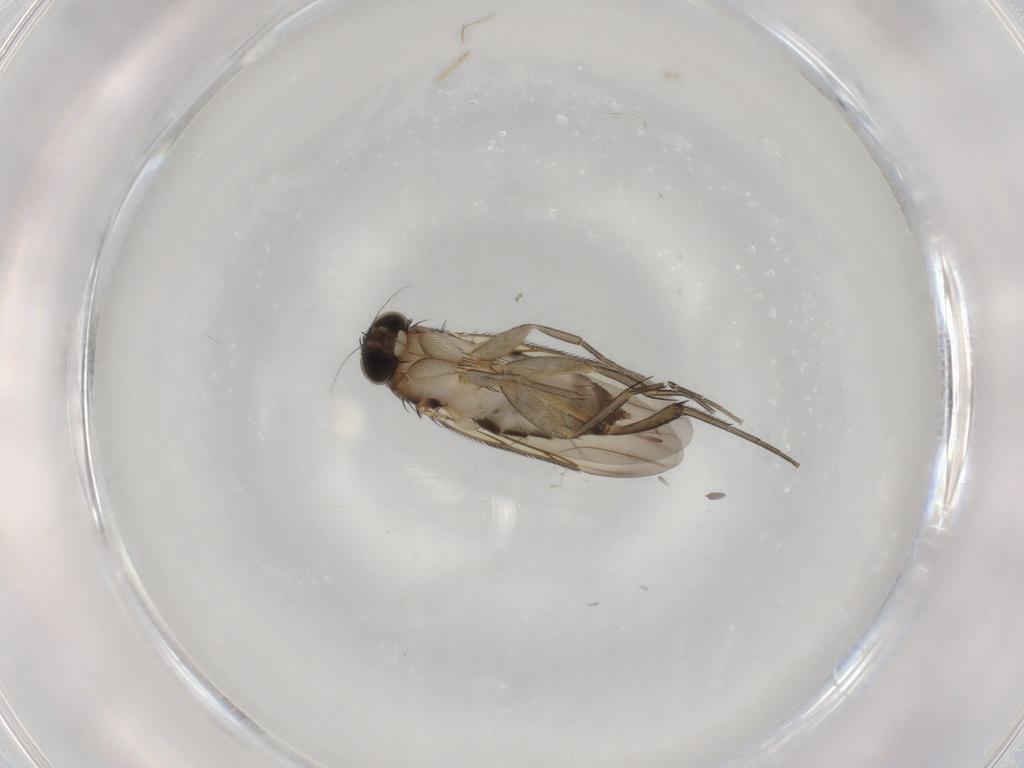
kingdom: Animalia
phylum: Arthropoda
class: Insecta
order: Diptera
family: Phoridae
